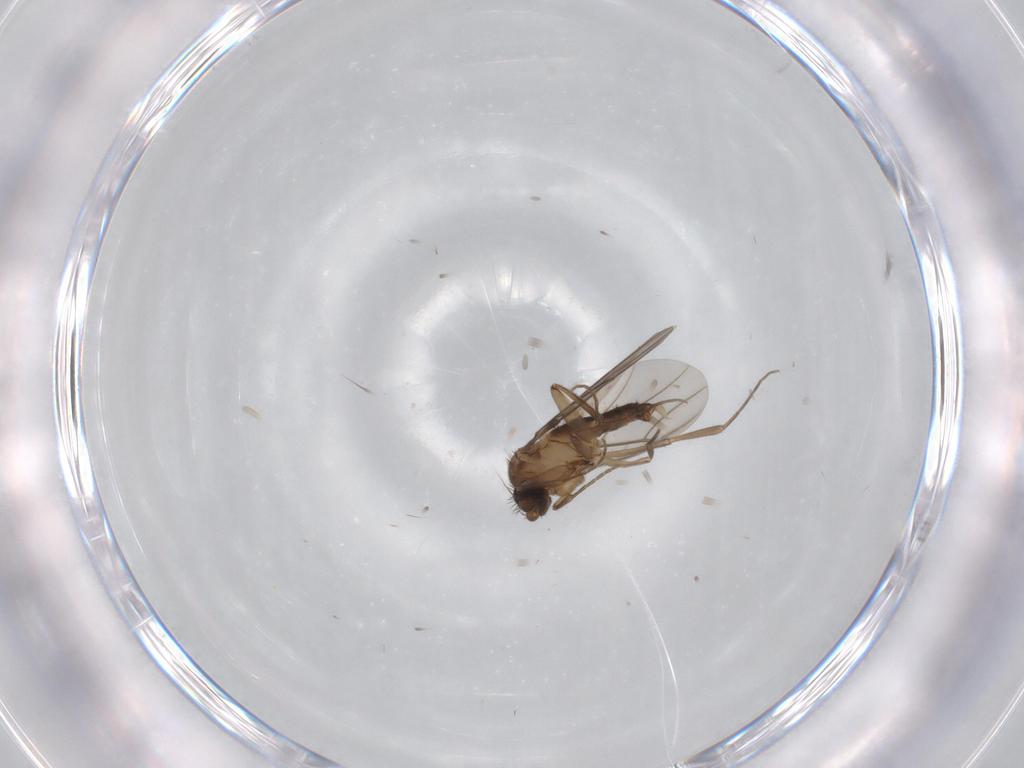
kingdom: Animalia
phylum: Arthropoda
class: Insecta
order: Diptera
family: Phoridae
